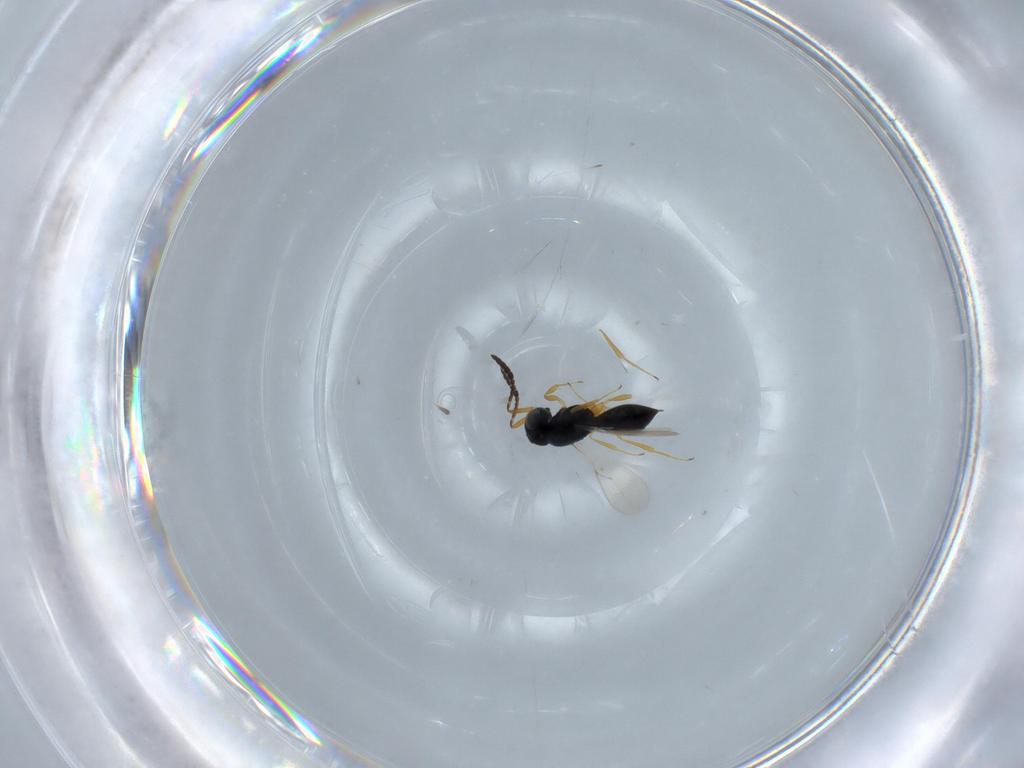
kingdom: Animalia
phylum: Arthropoda
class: Insecta
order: Hymenoptera
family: Scelionidae
